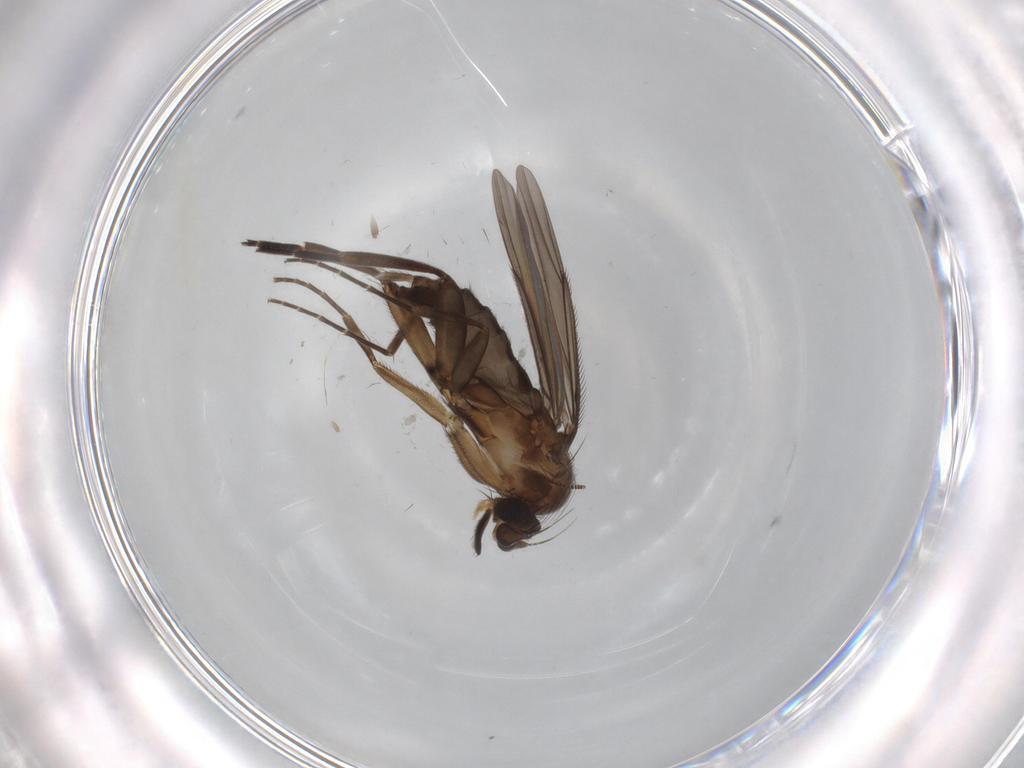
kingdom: Animalia
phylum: Arthropoda
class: Insecta
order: Diptera
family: Phoridae
